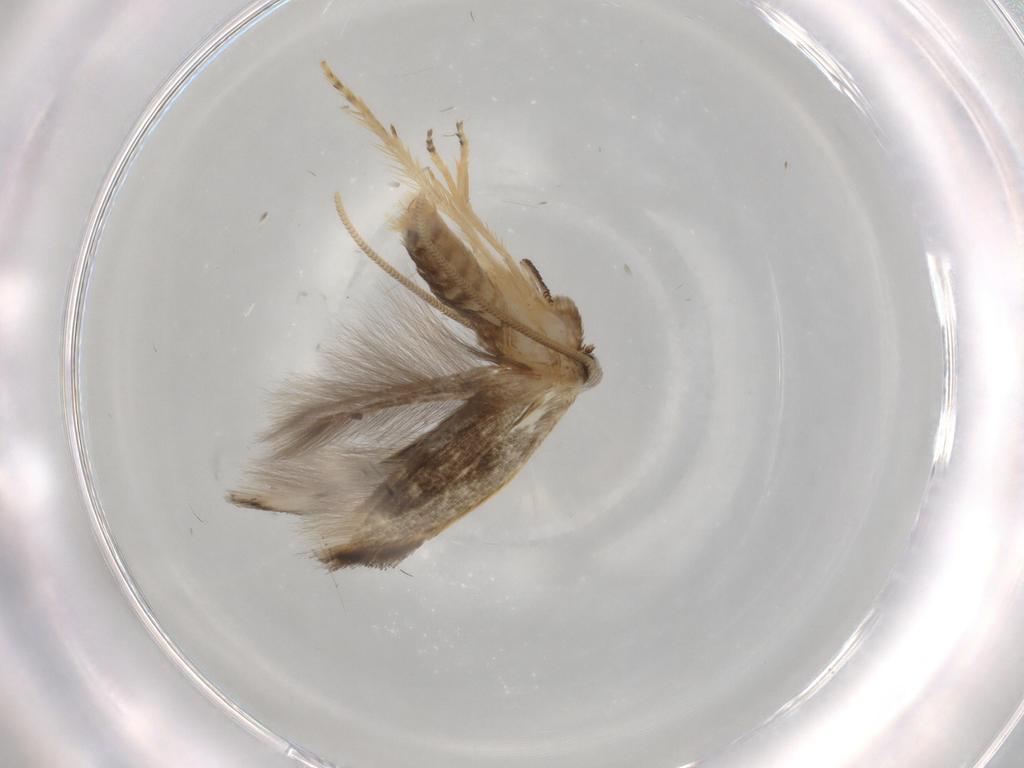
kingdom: Animalia
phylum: Arthropoda
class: Insecta
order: Lepidoptera
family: Opostegidae
